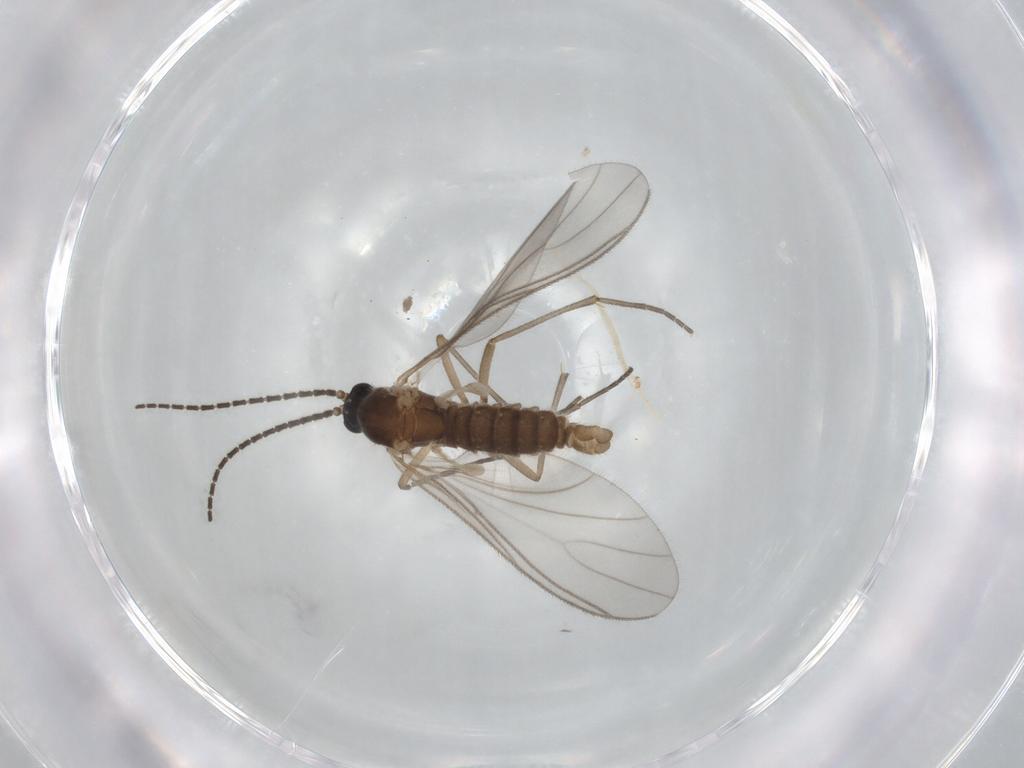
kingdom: Animalia
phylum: Arthropoda
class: Insecta
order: Diptera
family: Sciaridae
